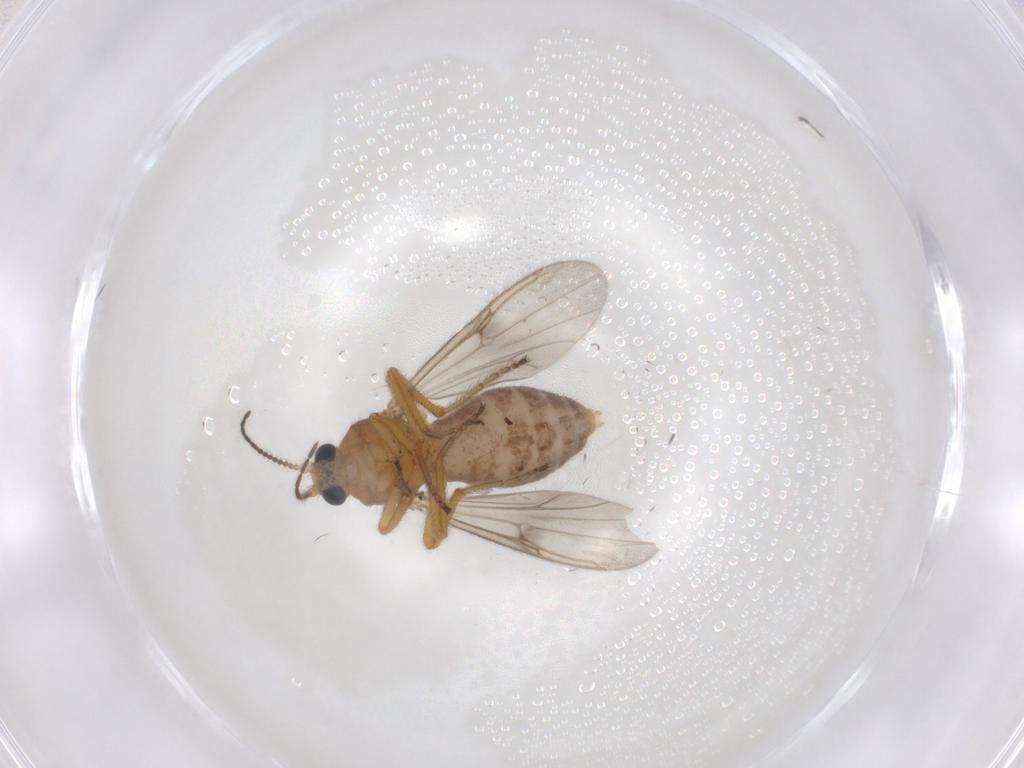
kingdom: Animalia
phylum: Arthropoda
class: Insecta
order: Diptera
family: Ceratopogonidae
